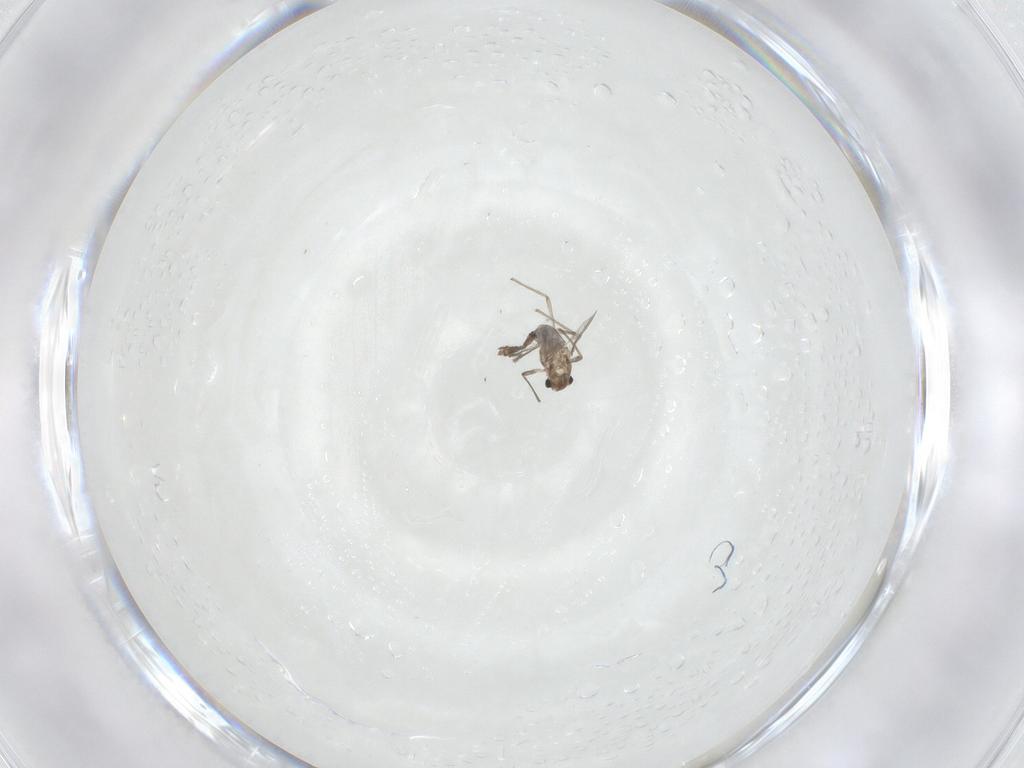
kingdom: Animalia
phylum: Arthropoda
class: Insecta
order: Diptera
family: Chironomidae
